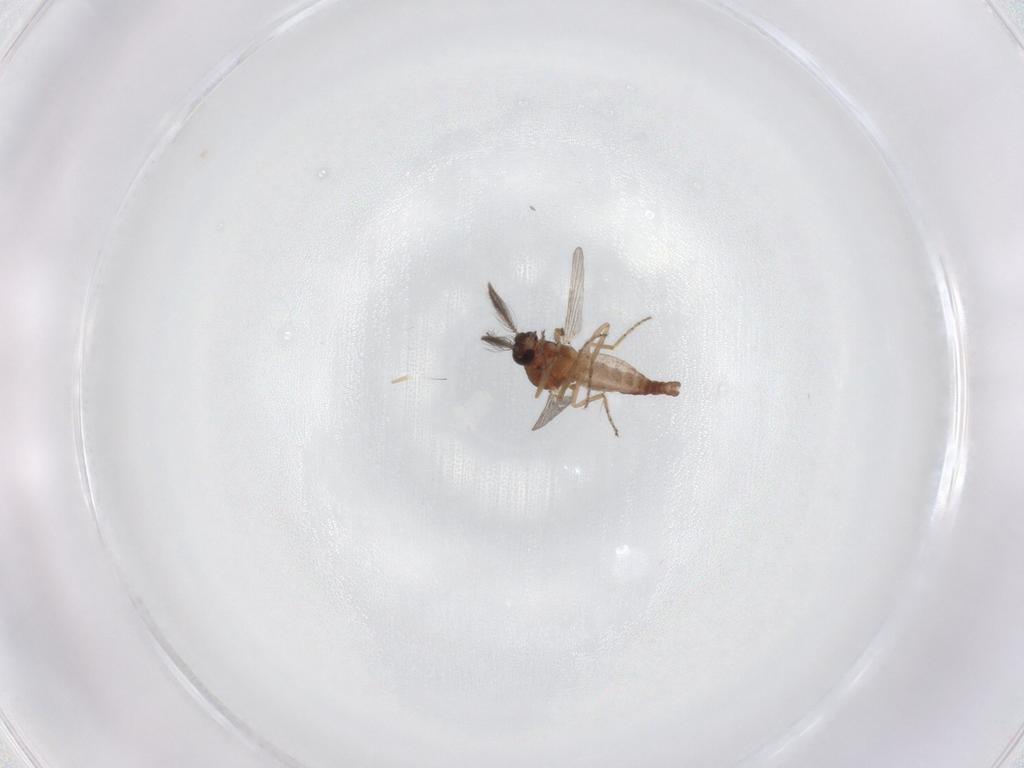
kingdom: Animalia
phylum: Arthropoda
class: Insecta
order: Diptera
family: Ceratopogonidae
